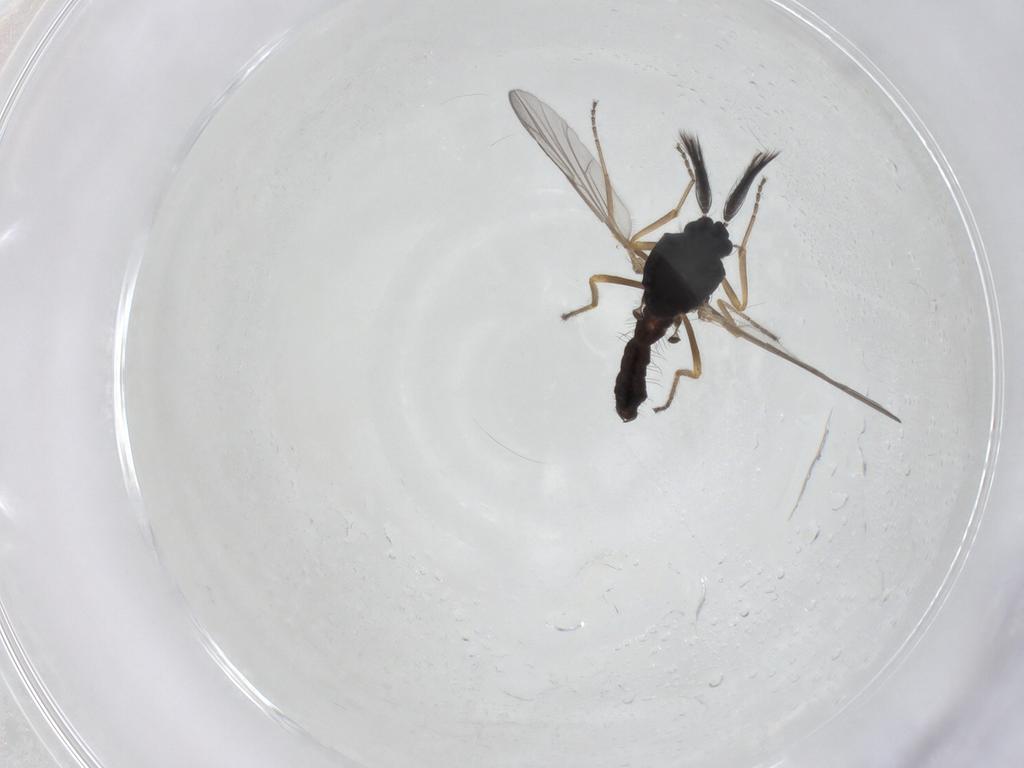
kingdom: Animalia
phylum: Arthropoda
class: Insecta
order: Diptera
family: Ceratopogonidae
